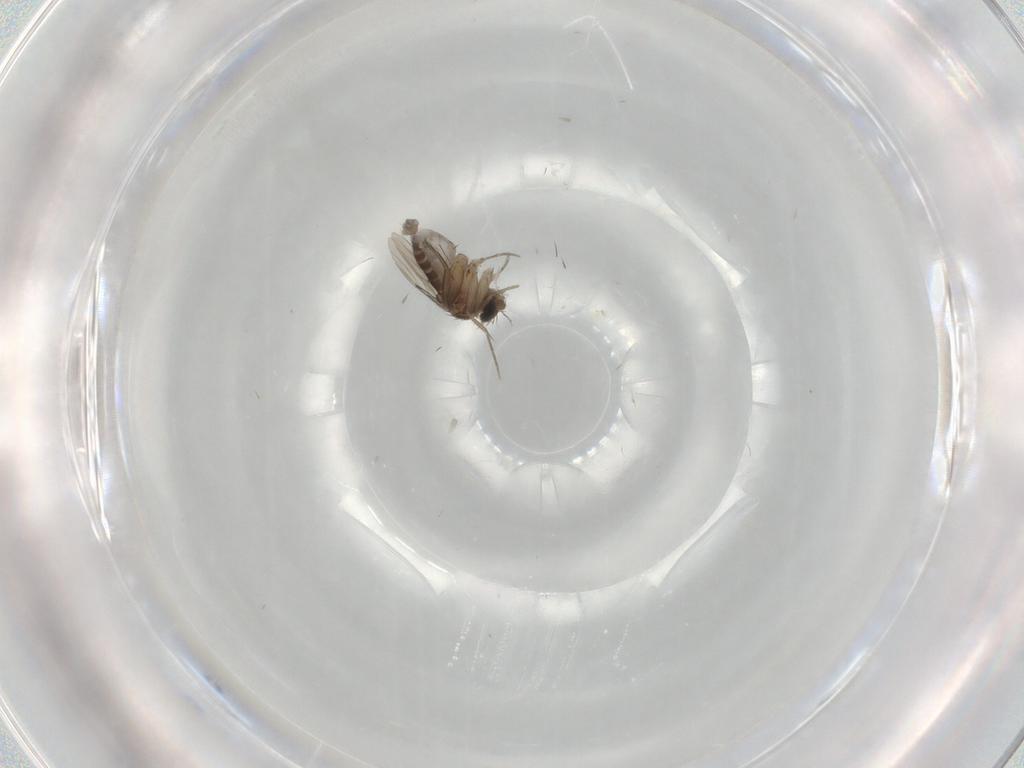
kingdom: Animalia
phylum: Arthropoda
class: Insecta
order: Diptera
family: Phoridae
